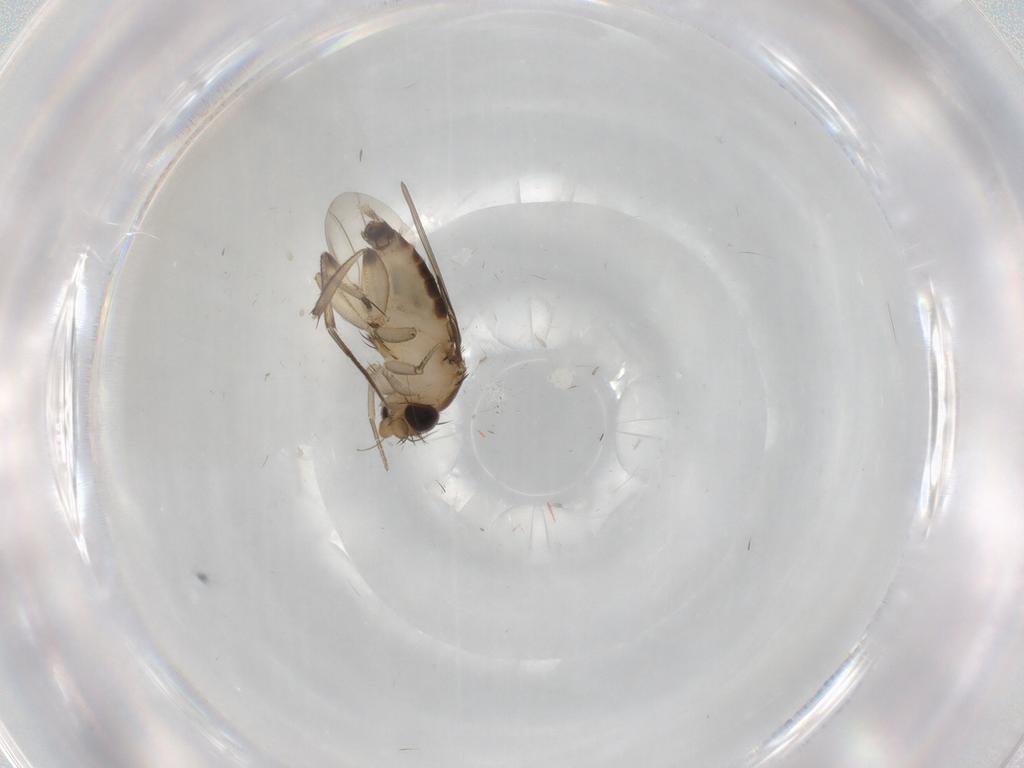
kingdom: Animalia
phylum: Arthropoda
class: Insecta
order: Diptera
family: Phoridae
